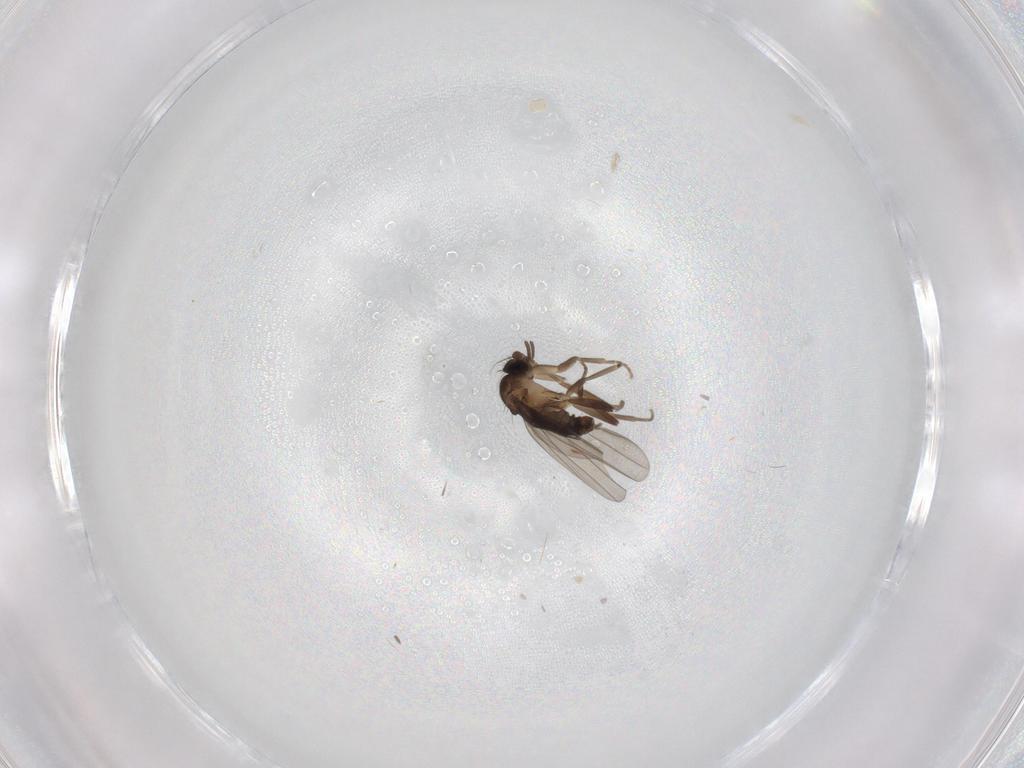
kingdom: Animalia
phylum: Arthropoda
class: Insecta
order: Diptera
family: Phoridae
